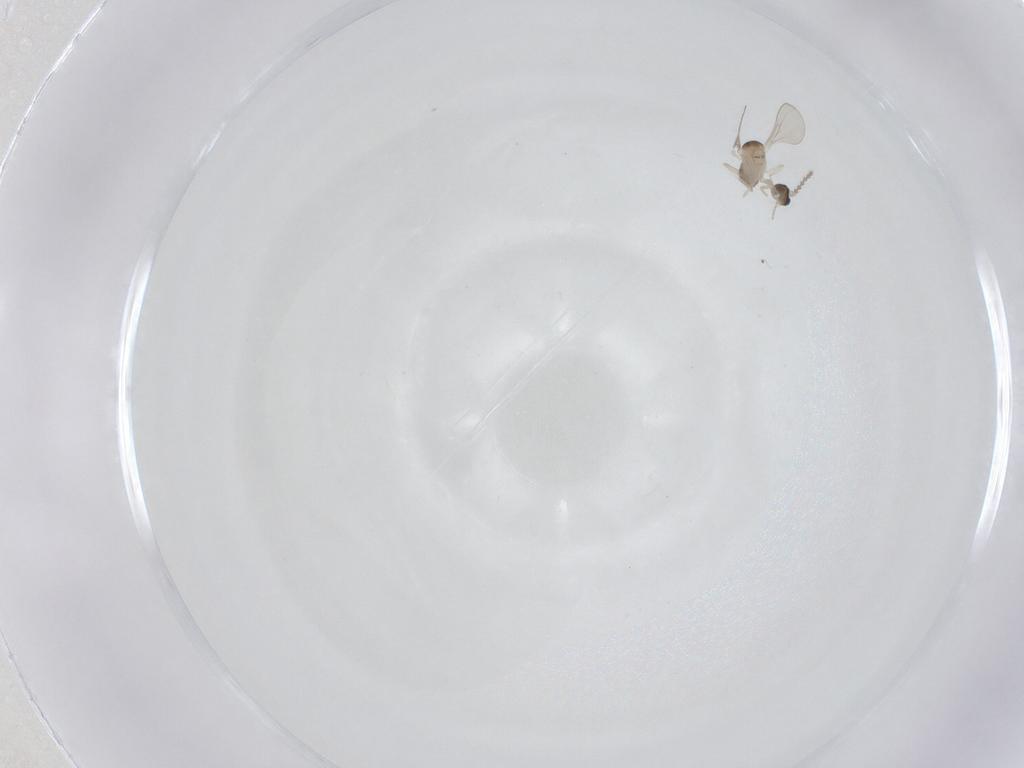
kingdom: Animalia
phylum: Arthropoda
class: Insecta
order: Diptera
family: Cecidomyiidae
